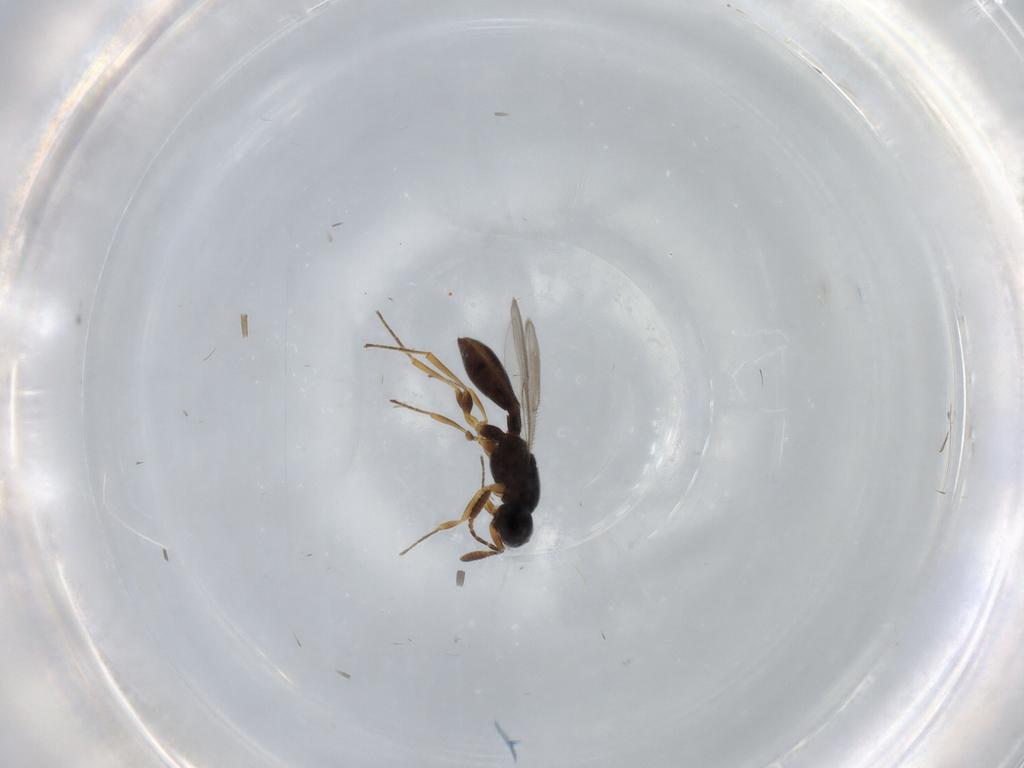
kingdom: Animalia
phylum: Arthropoda
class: Insecta
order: Hymenoptera
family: Scelionidae
